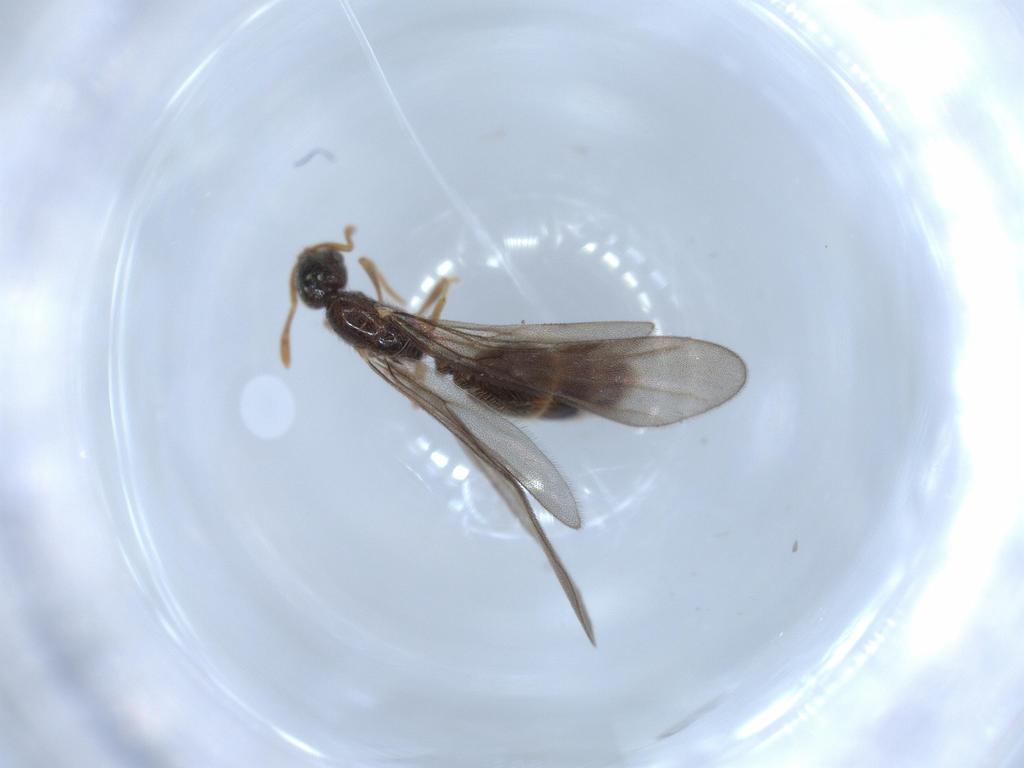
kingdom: Animalia
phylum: Arthropoda
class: Insecta
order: Hymenoptera
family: Formicidae
